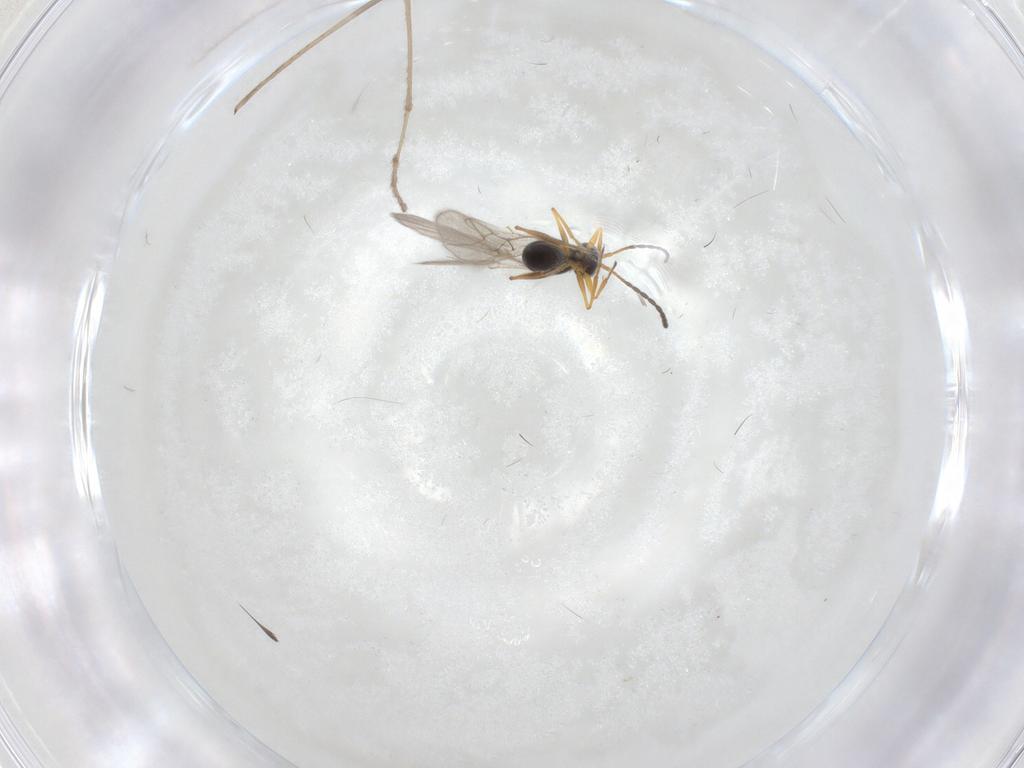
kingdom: Animalia
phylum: Arthropoda
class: Insecta
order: Hymenoptera
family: Figitidae
